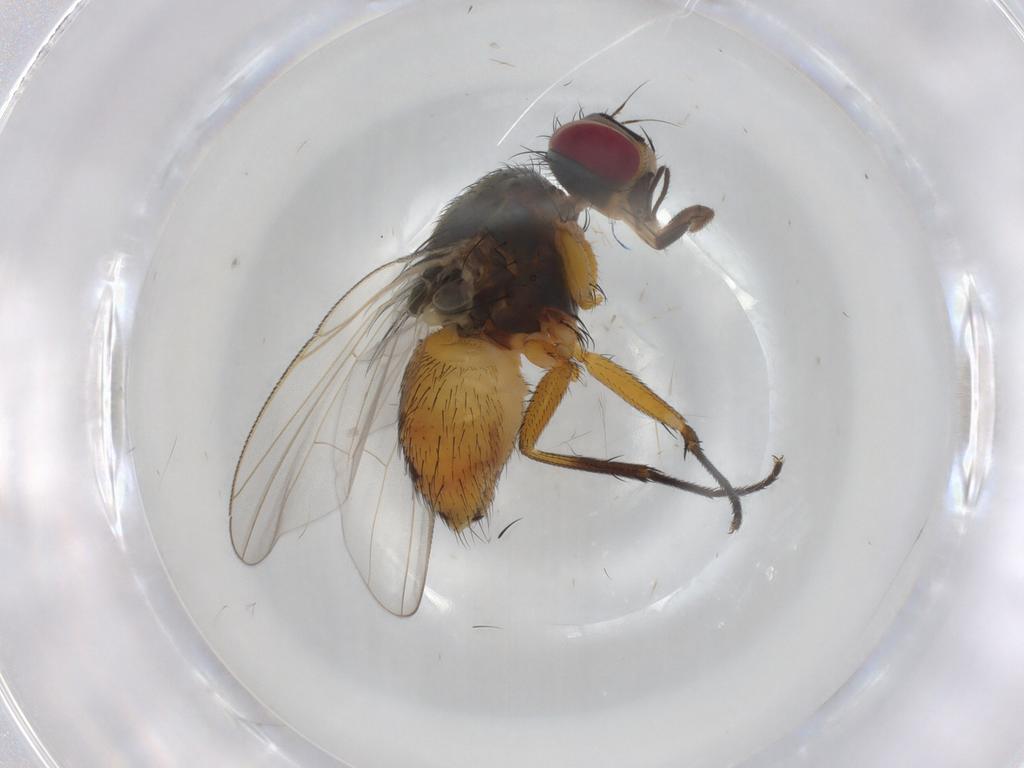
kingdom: Animalia
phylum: Arthropoda
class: Insecta
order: Diptera
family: Muscidae
